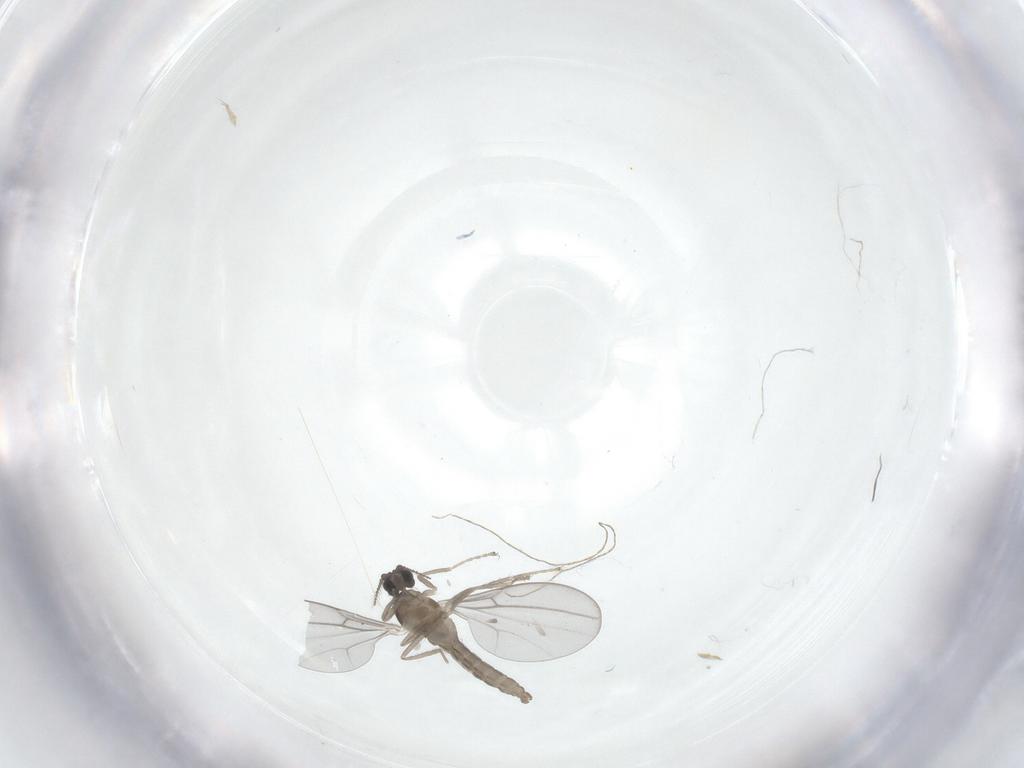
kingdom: Animalia
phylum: Arthropoda
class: Insecta
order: Diptera
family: Cecidomyiidae
